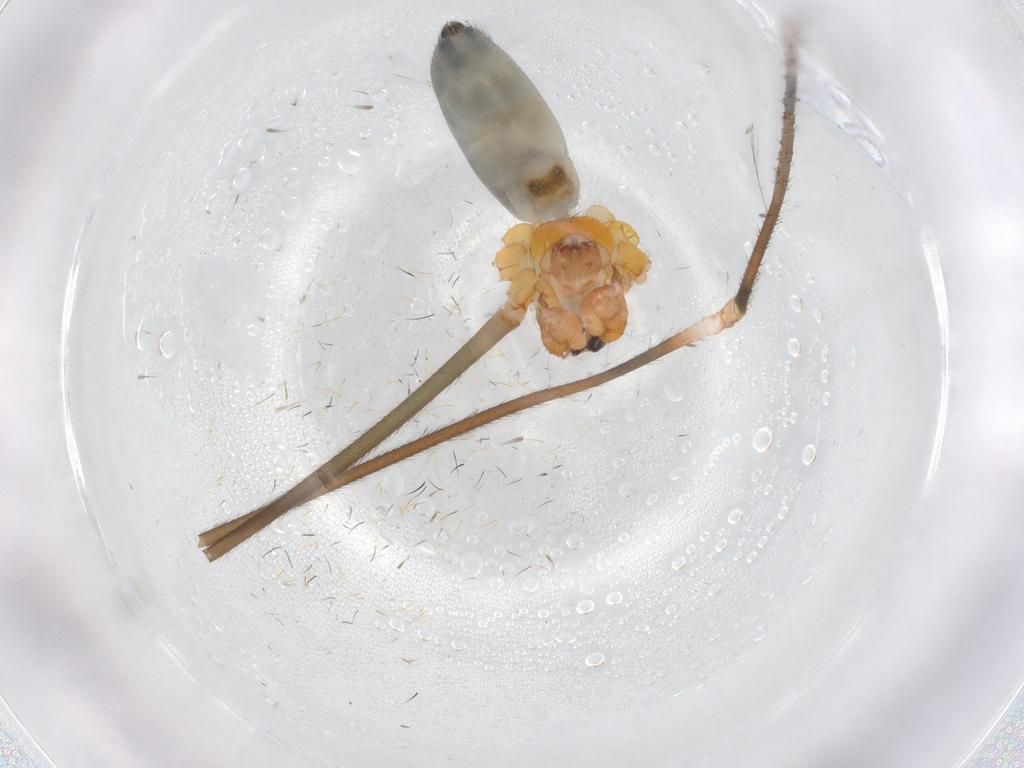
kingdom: Animalia
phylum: Arthropoda
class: Arachnida
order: Araneae
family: Pholcidae
